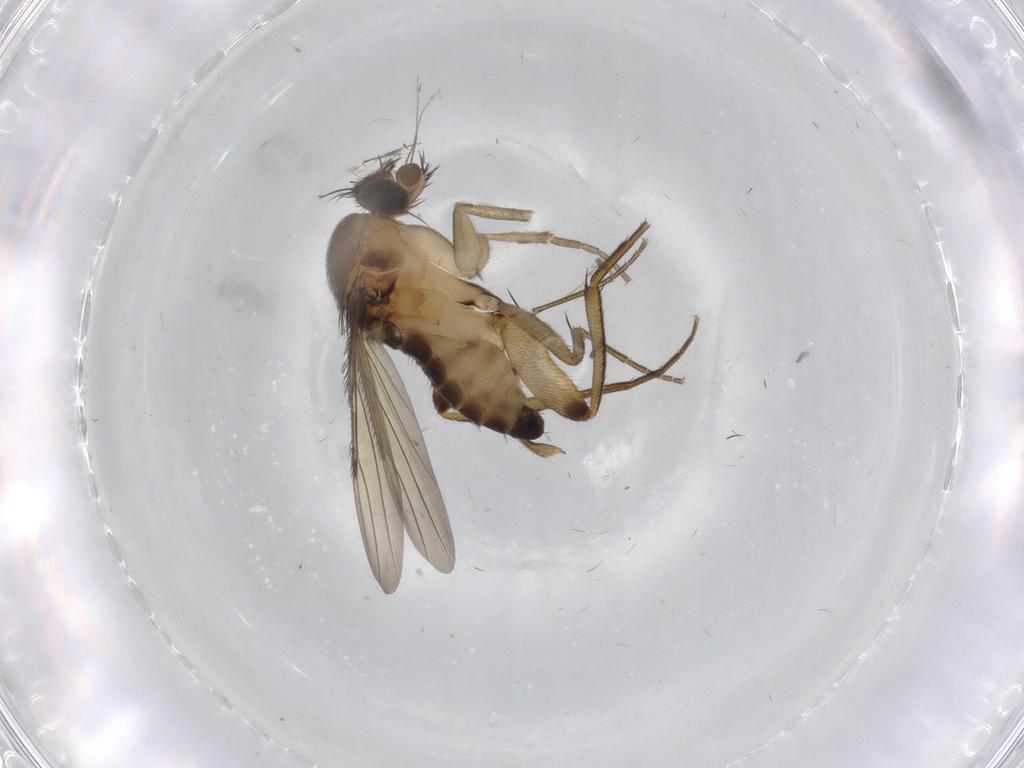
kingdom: Animalia
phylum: Arthropoda
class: Insecta
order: Diptera
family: Phoridae
